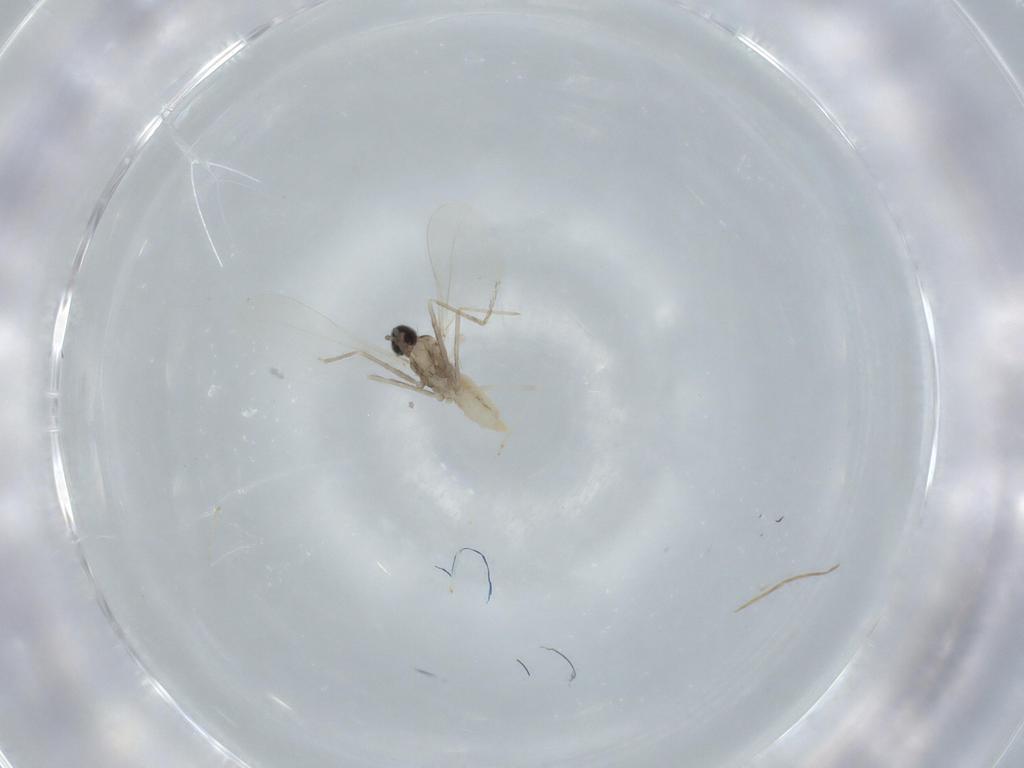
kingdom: Animalia
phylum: Arthropoda
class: Insecta
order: Diptera
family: Cecidomyiidae
